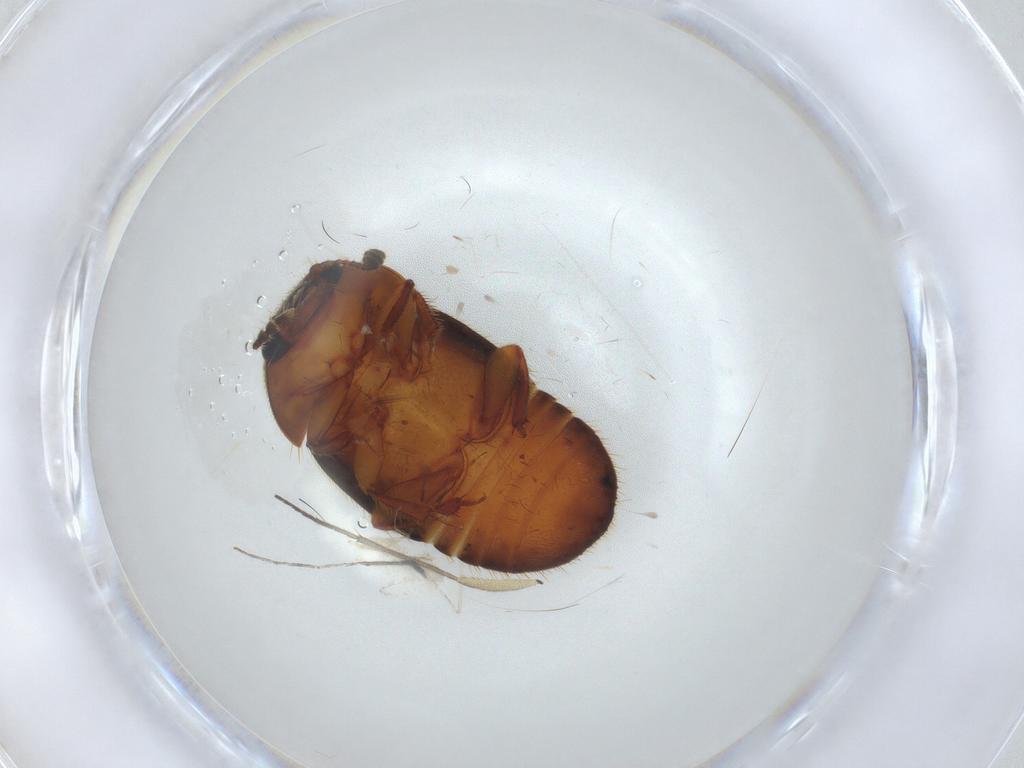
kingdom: Animalia
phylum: Arthropoda
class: Insecta
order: Coleoptera
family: Nitidulidae
